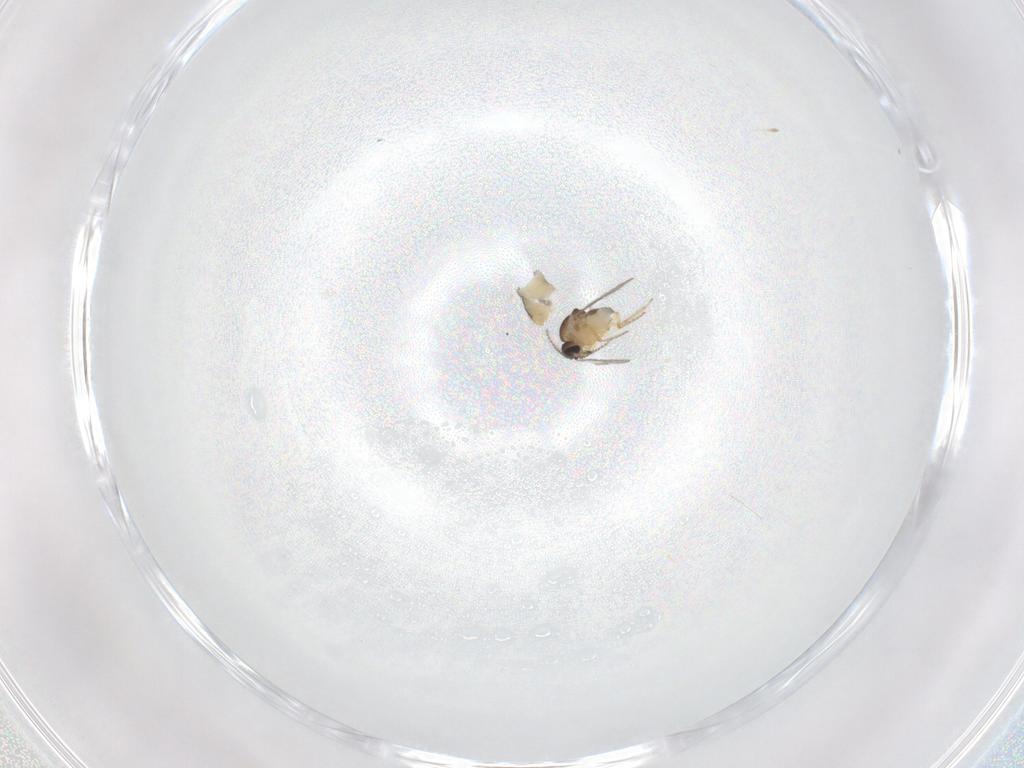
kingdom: Animalia
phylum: Arthropoda
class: Insecta
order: Diptera
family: Ceratopogonidae
